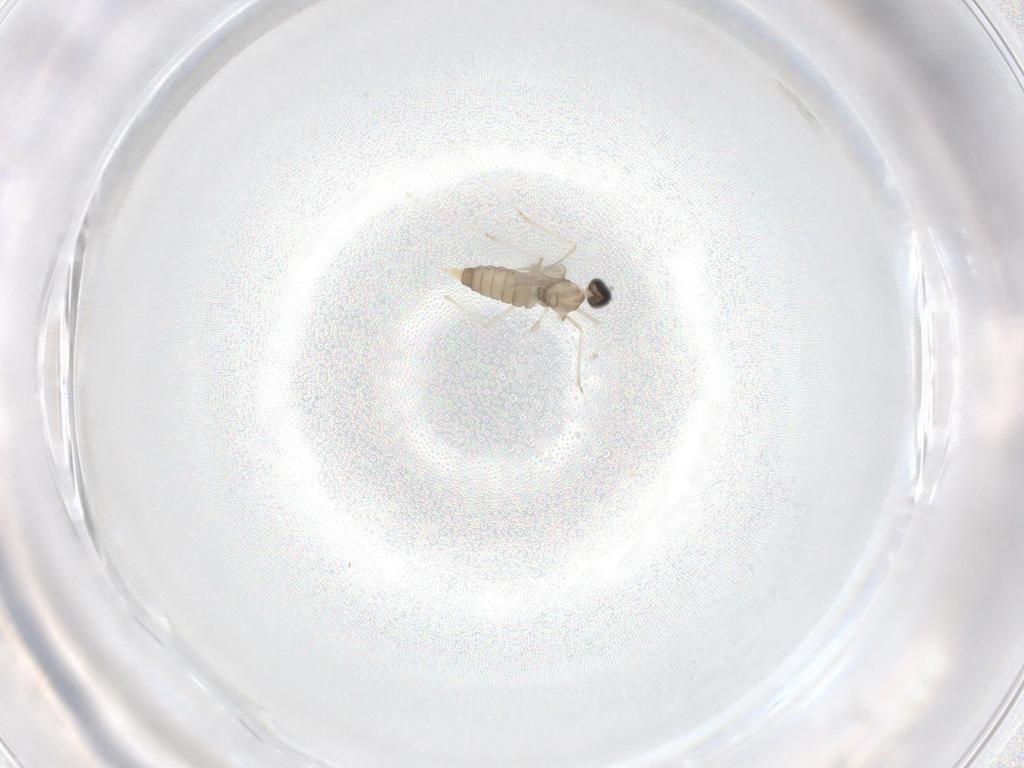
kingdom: Animalia
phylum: Arthropoda
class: Insecta
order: Diptera
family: Cecidomyiidae
